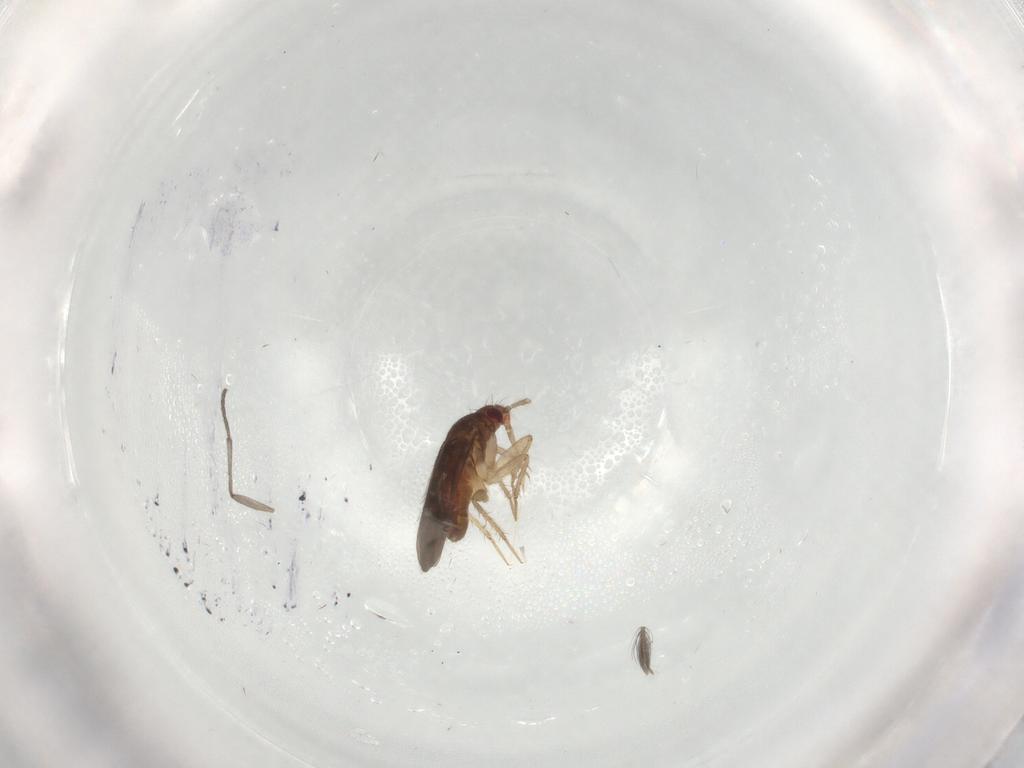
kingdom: Animalia
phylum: Arthropoda
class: Insecta
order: Hemiptera
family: Ceratocombidae
